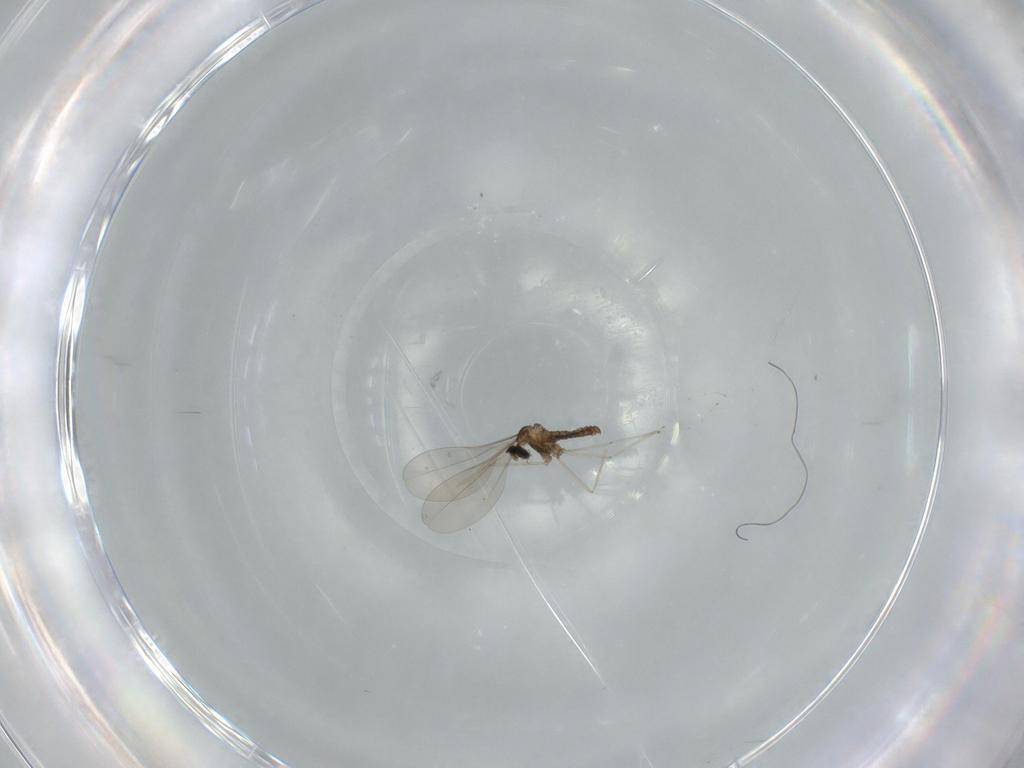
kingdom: Animalia
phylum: Arthropoda
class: Insecta
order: Diptera
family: Cecidomyiidae
